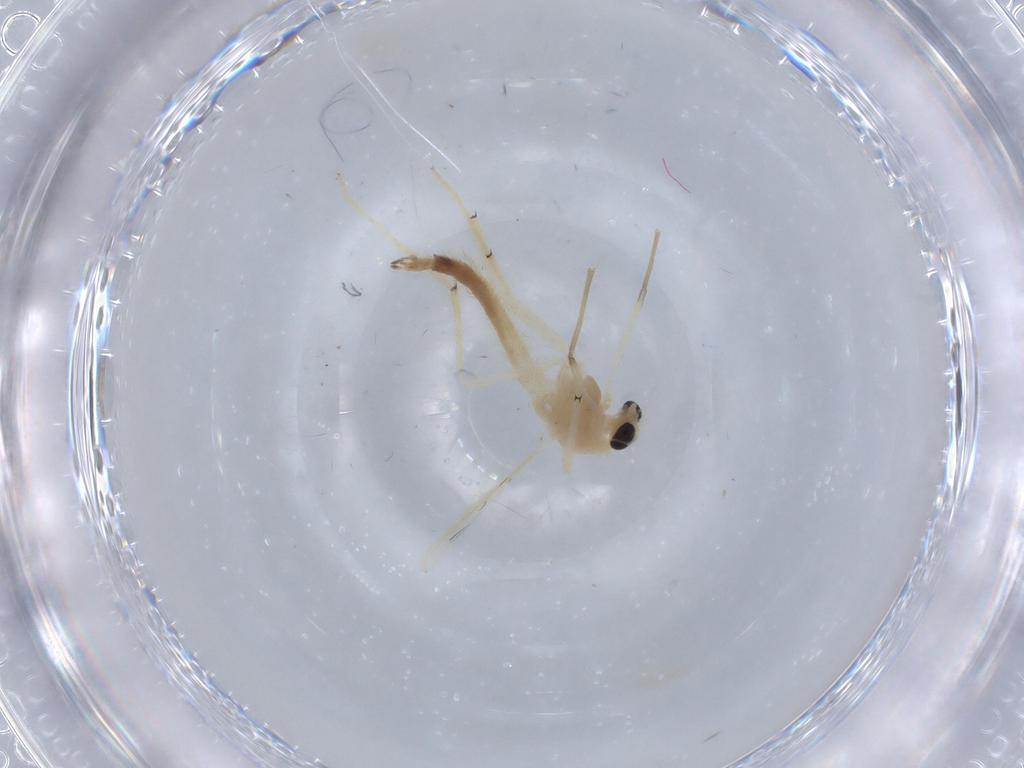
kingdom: Animalia
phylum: Arthropoda
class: Insecta
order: Diptera
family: Chironomidae
